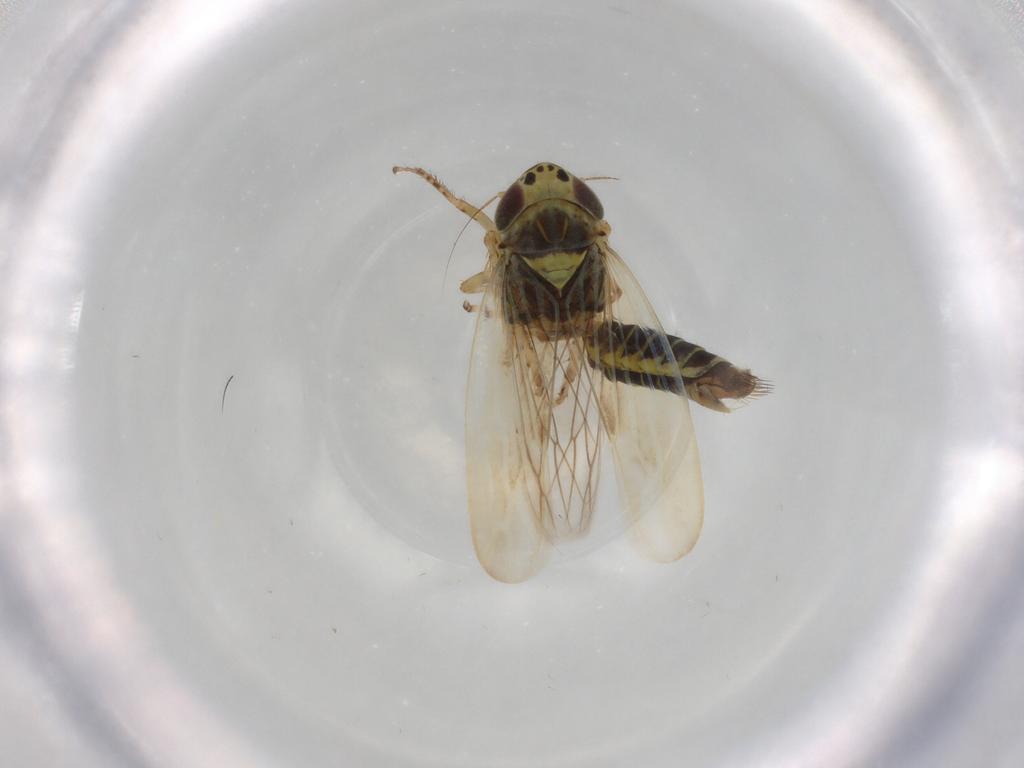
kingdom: Animalia
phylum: Arthropoda
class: Insecta
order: Hemiptera
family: Cicadellidae
